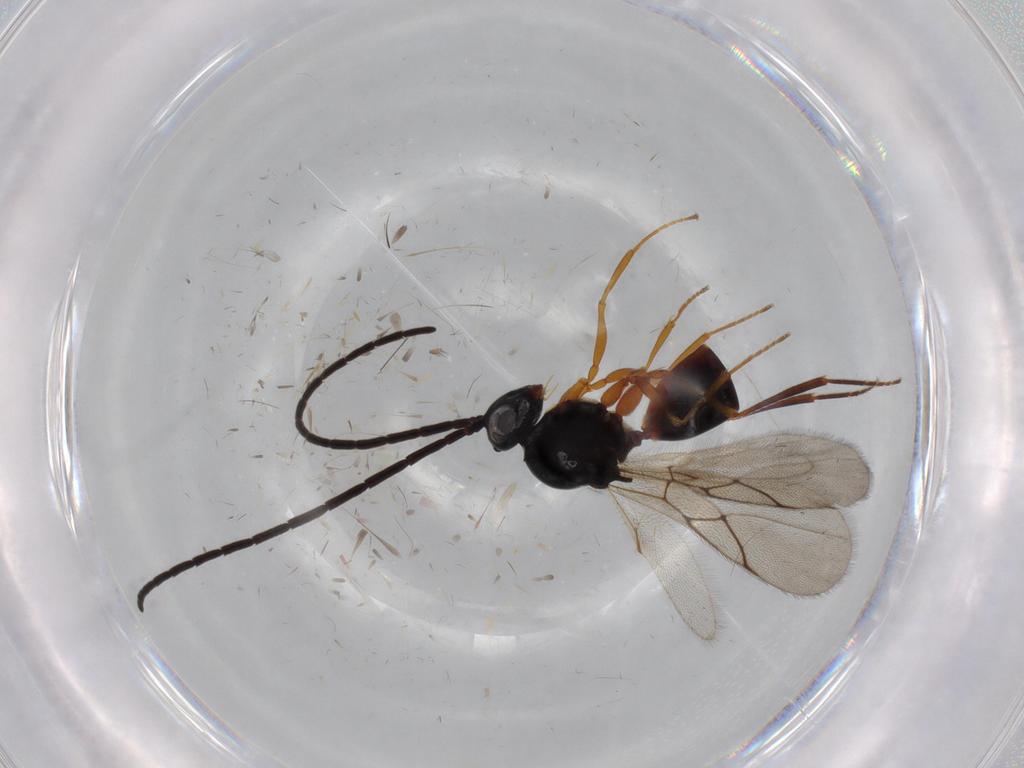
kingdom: Animalia
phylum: Arthropoda
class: Insecta
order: Hymenoptera
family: Figitidae
